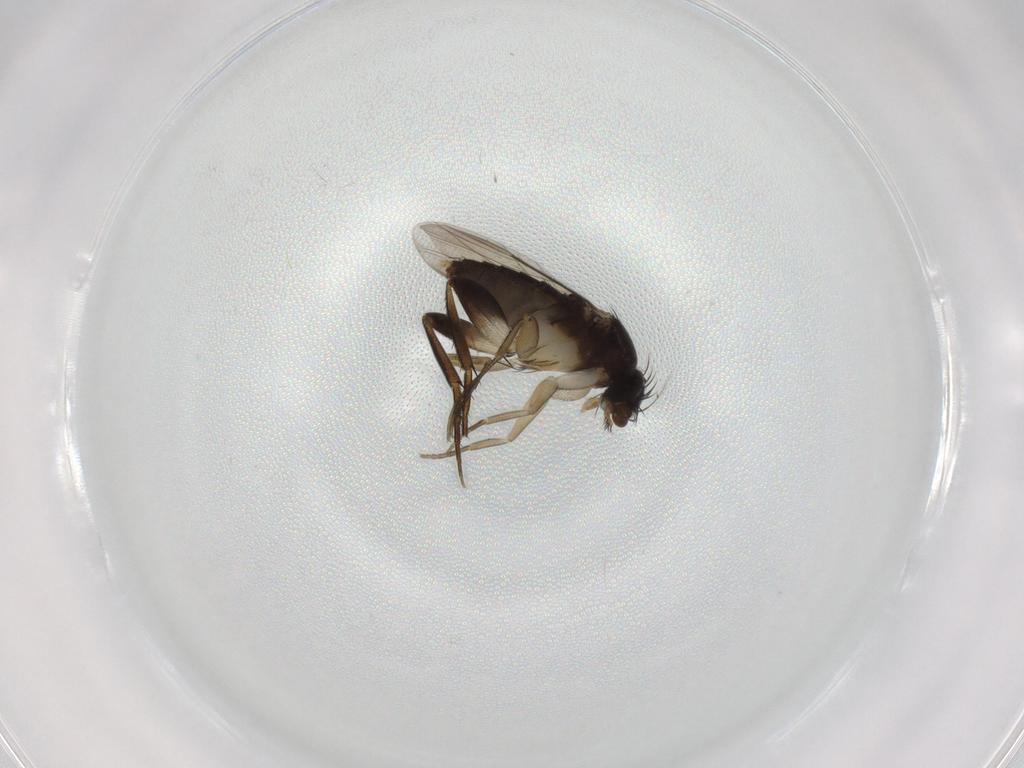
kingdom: Animalia
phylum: Arthropoda
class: Insecta
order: Diptera
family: Phoridae
